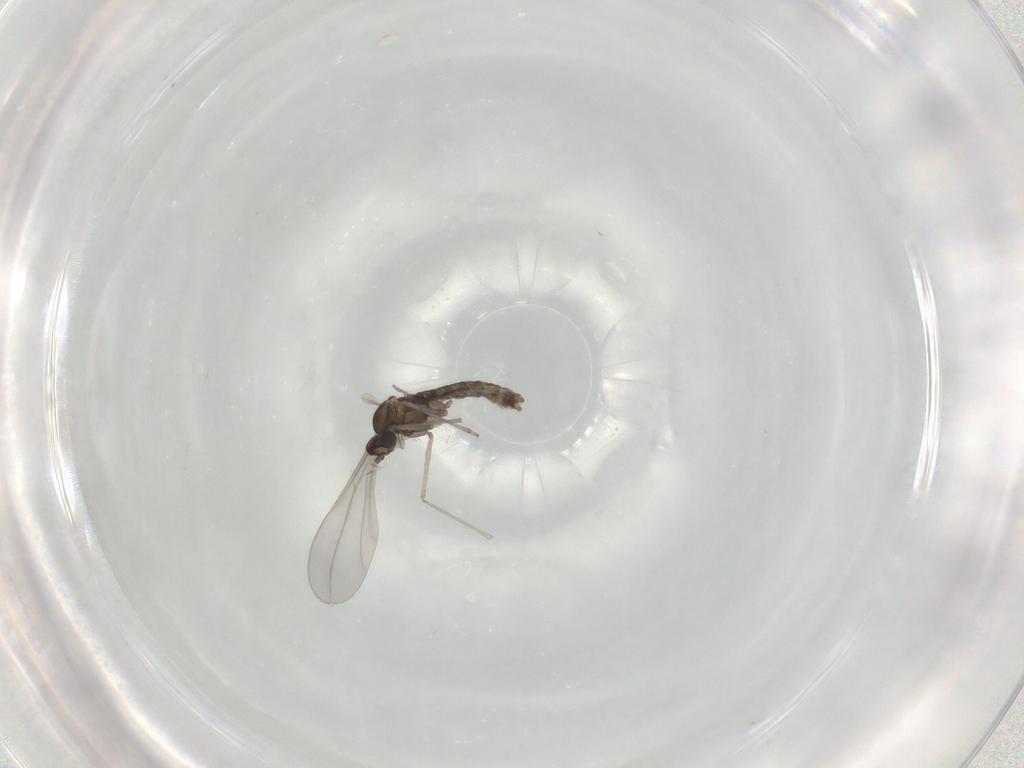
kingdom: Animalia
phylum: Arthropoda
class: Insecta
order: Diptera
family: Cecidomyiidae
